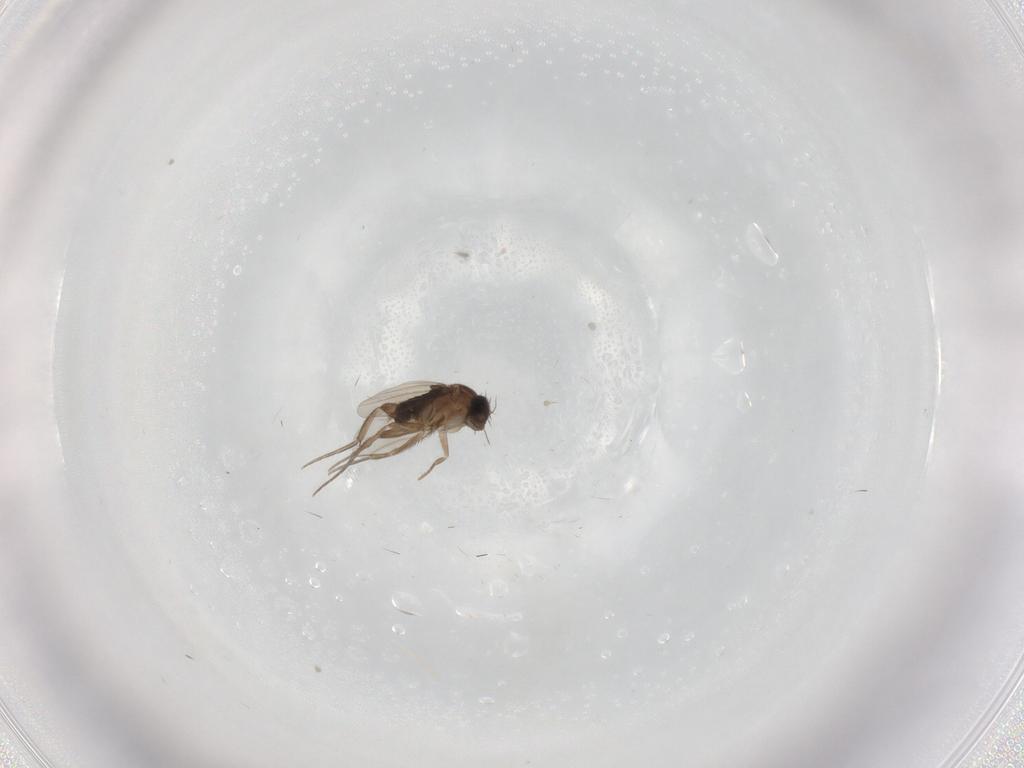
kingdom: Animalia
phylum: Arthropoda
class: Insecta
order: Diptera
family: Phoridae
